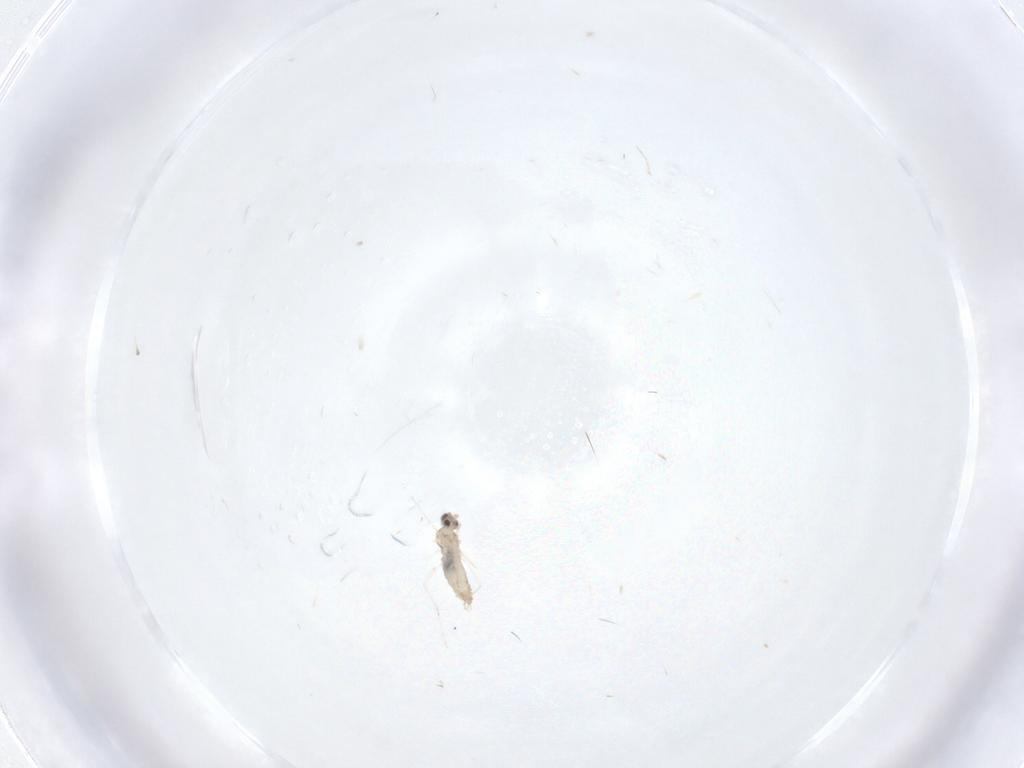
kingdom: Animalia
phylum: Arthropoda
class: Insecta
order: Diptera
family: Cecidomyiidae
